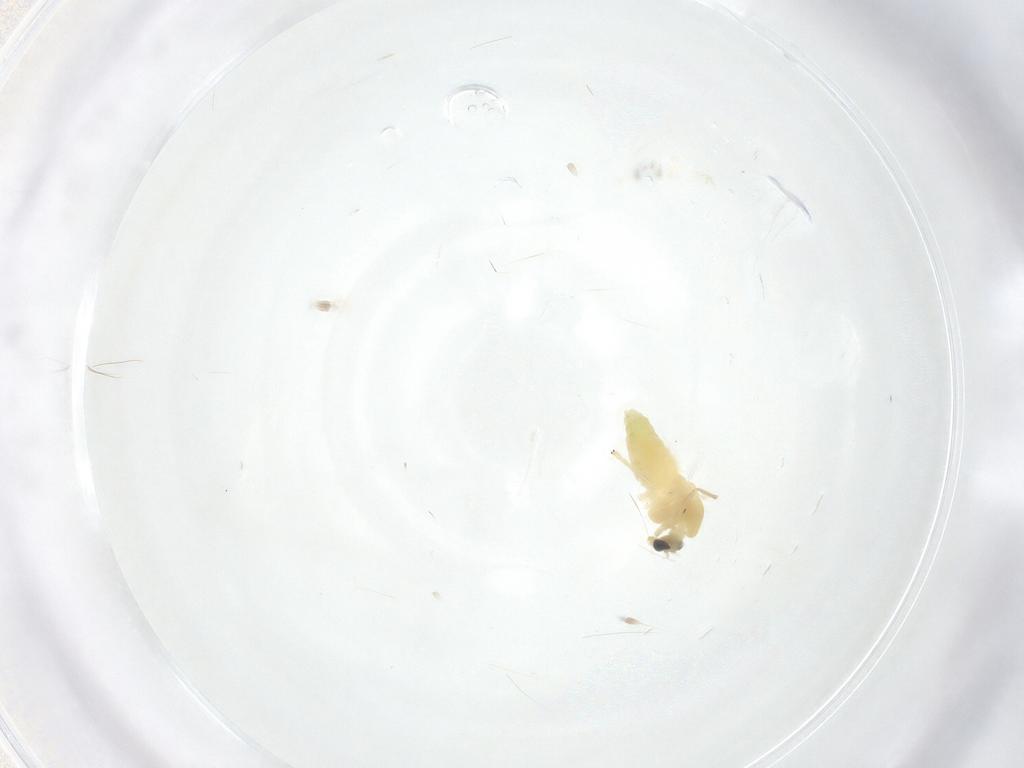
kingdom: Animalia
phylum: Arthropoda
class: Insecta
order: Diptera
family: Chironomidae
